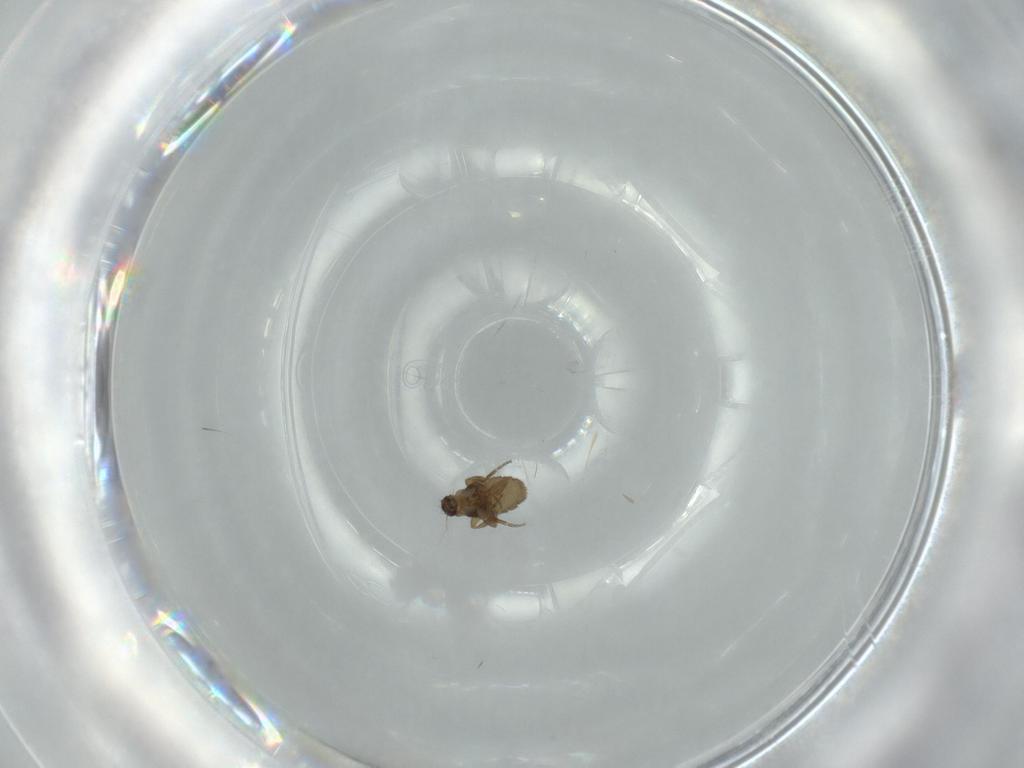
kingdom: Animalia
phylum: Arthropoda
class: Insecta
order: Diptera
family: Phoridae
